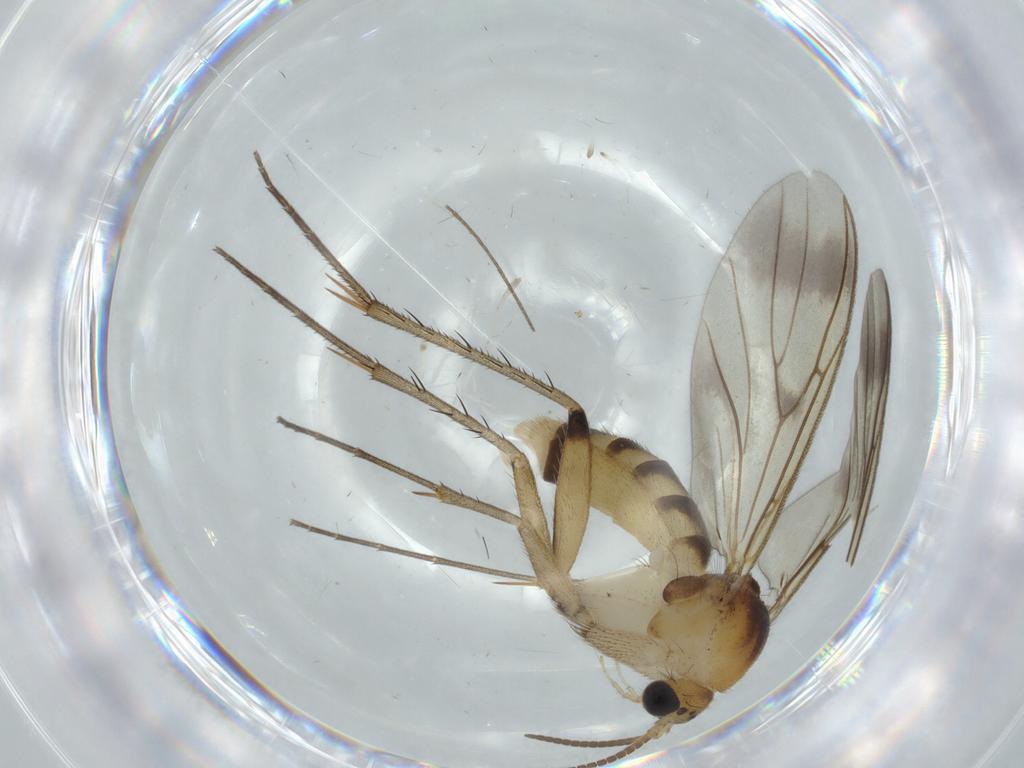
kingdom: Animalia
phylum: Arthropoda
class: Insecta
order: Diptera
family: Cecidomyiidae
